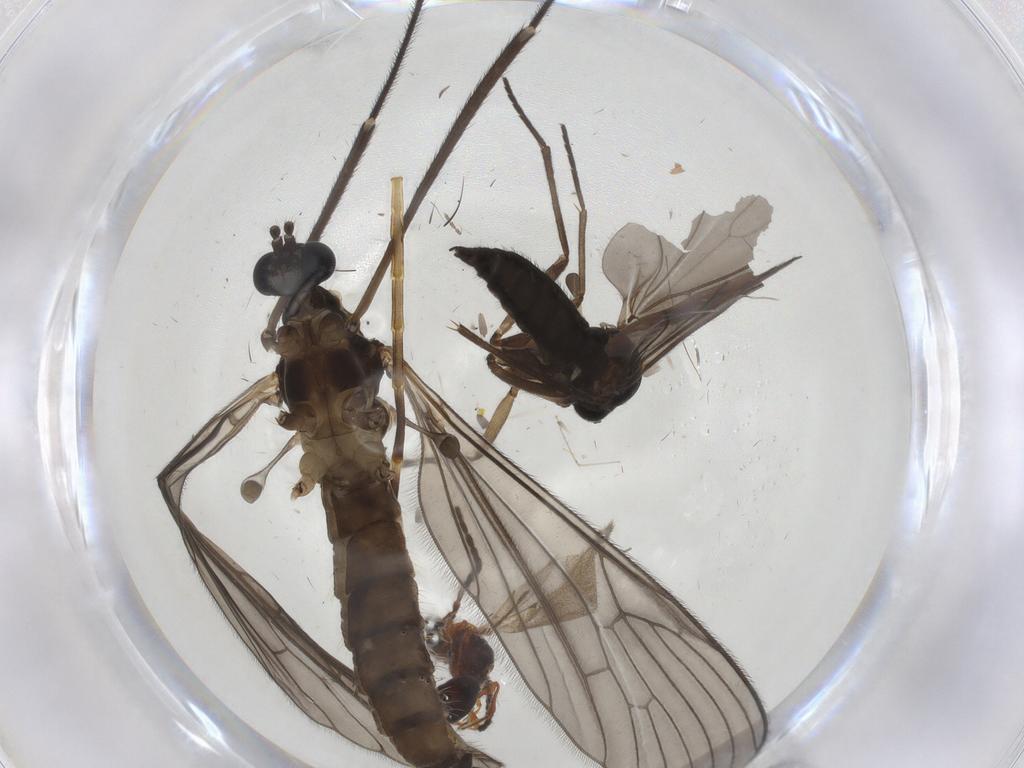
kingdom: Animalia
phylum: Arthropoda
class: Insecta
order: Diptera
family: Limoniidae
